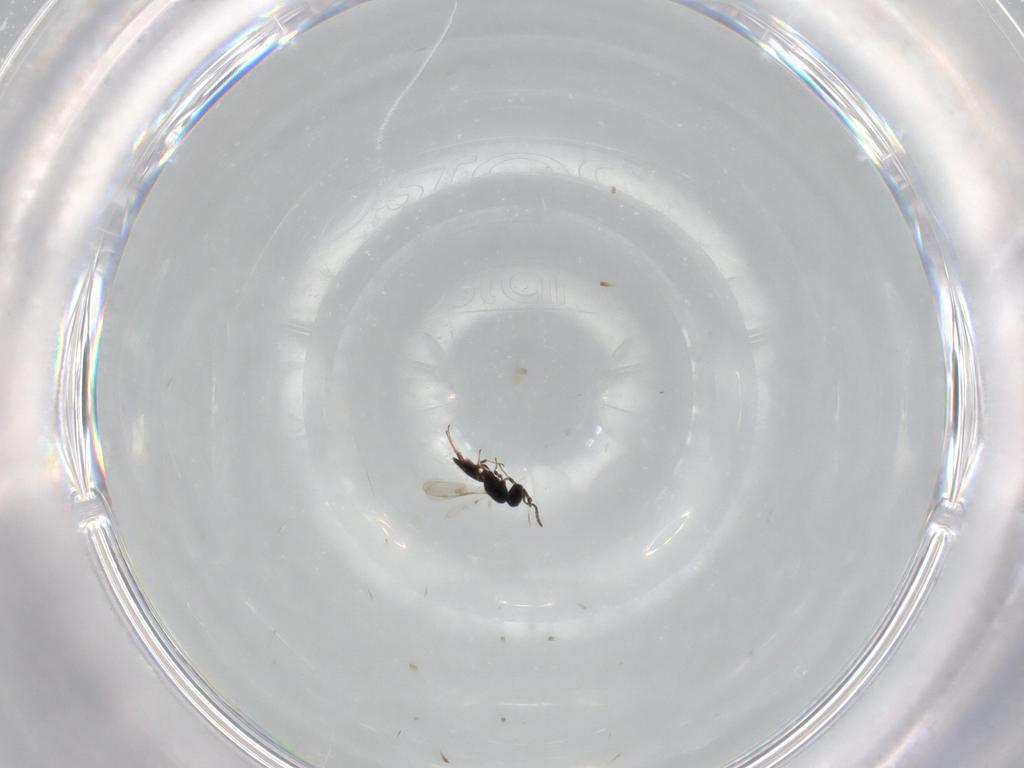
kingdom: Animalia
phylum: Arthropoda
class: Insecta
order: Hymenoptera
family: Scelionidae
